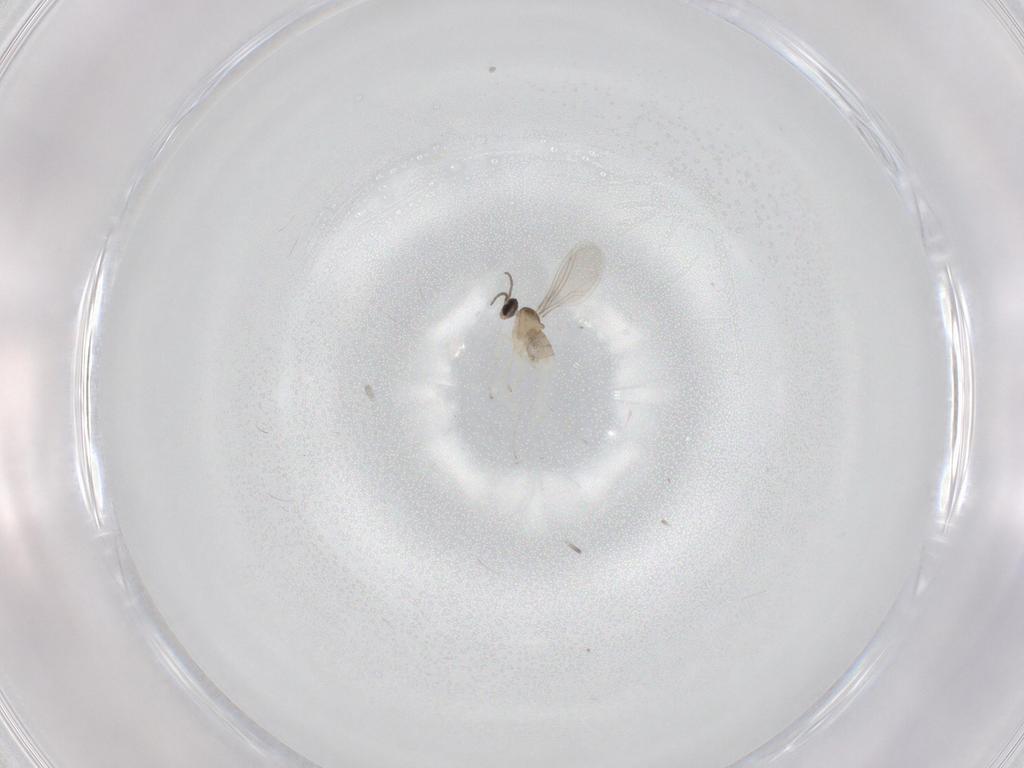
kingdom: Animalia
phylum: Arthropoda
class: Insecta
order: Diptera
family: Cecidomyiidae
